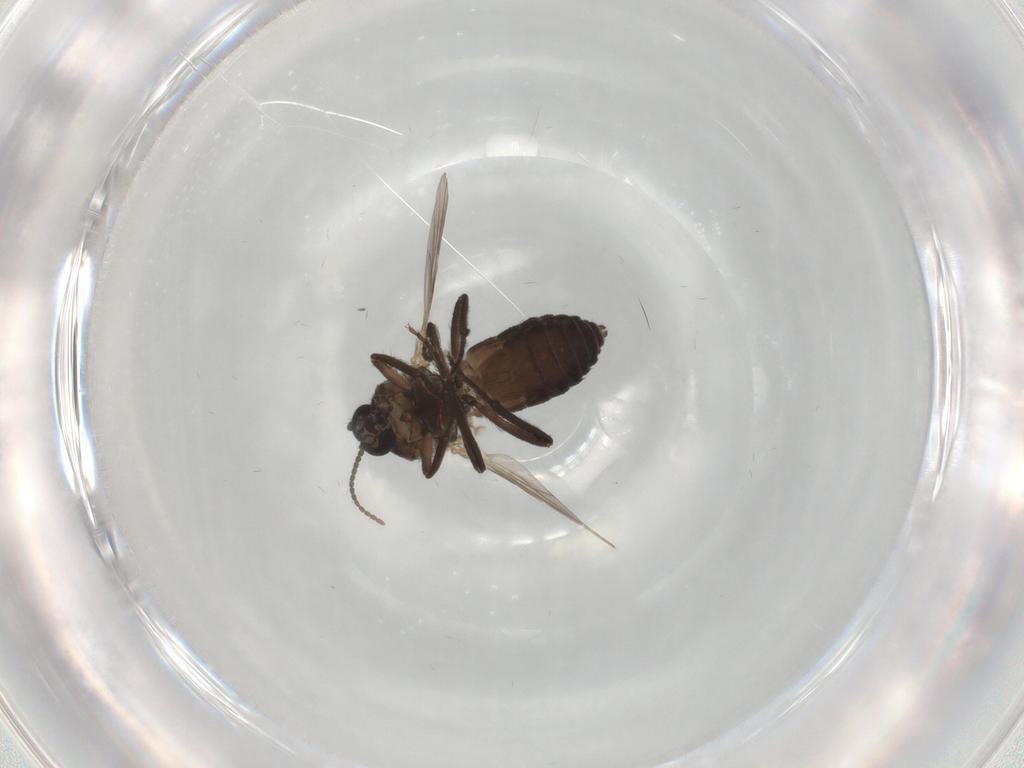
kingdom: Animalia
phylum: Arthropoda
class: Insecta
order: Diptera
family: Ceratopogonidae
